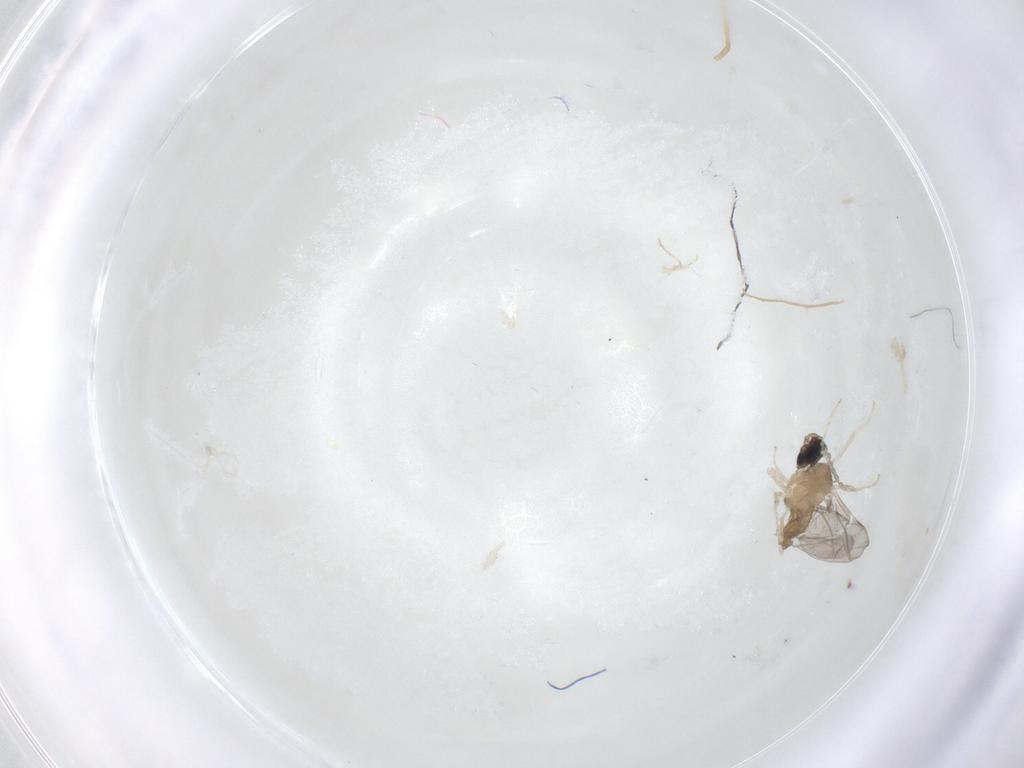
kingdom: Animalia
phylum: Arthropoda
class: Insecta
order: Diptera
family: Cecidomyiidae
